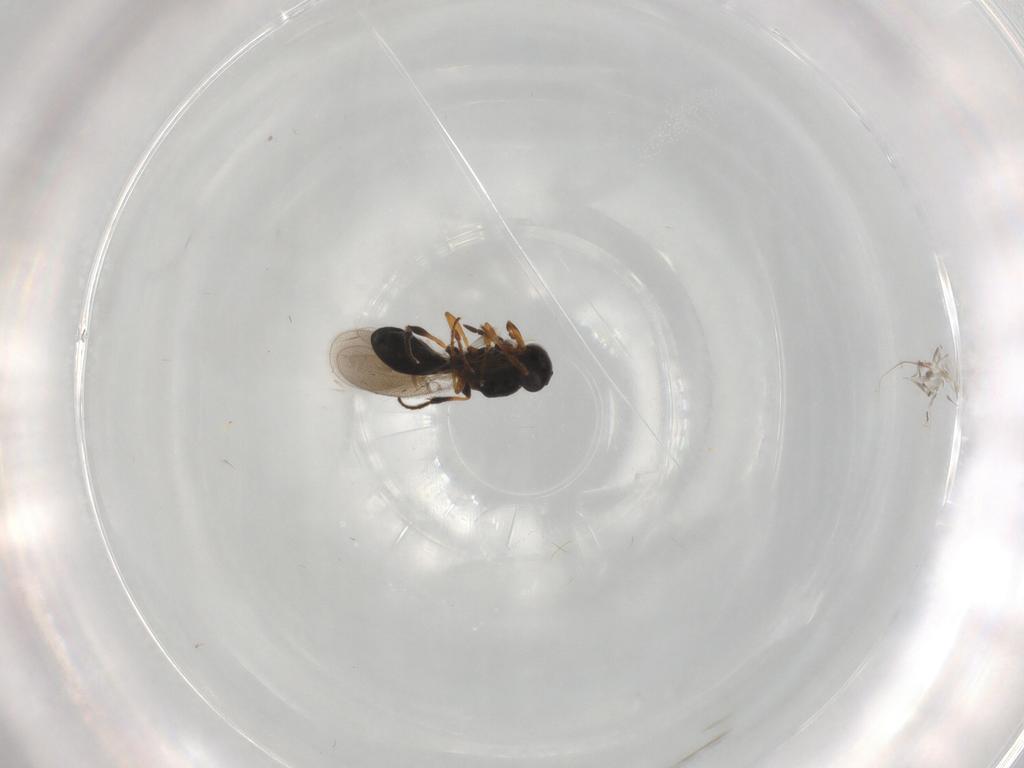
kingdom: Animalia
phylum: Arthropoda
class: Insecta
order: Hymenoptera
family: Platygastridae
